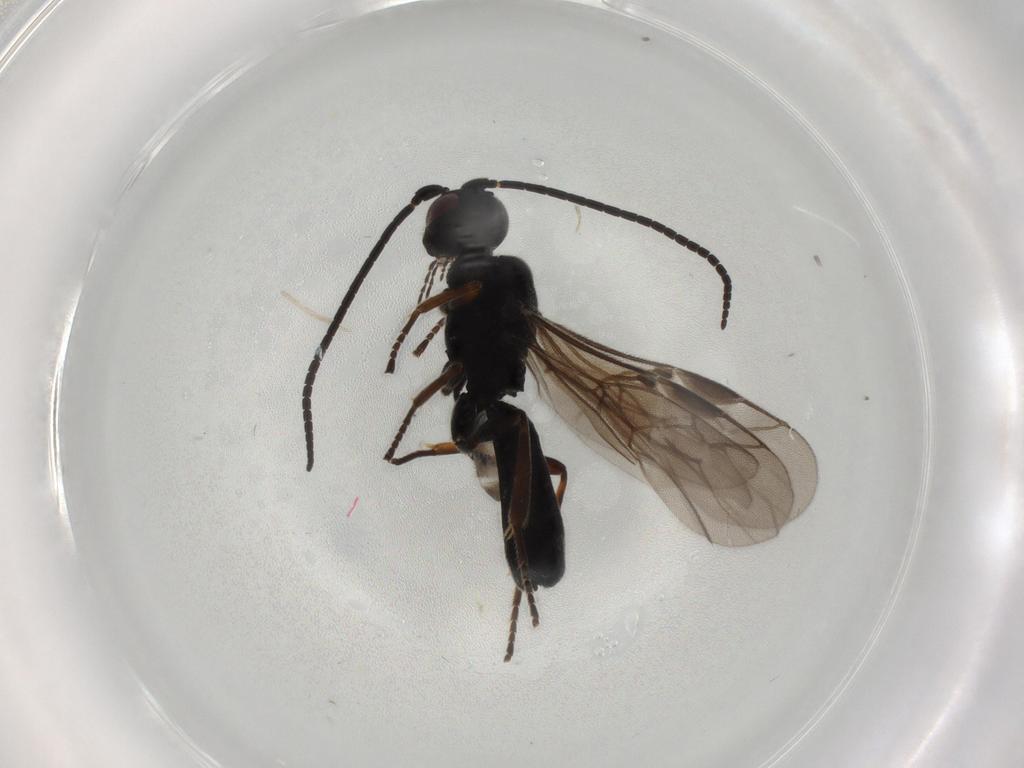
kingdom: Animalia
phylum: Arthropoda
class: Insecta
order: Hymenoptera
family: Braconidae
